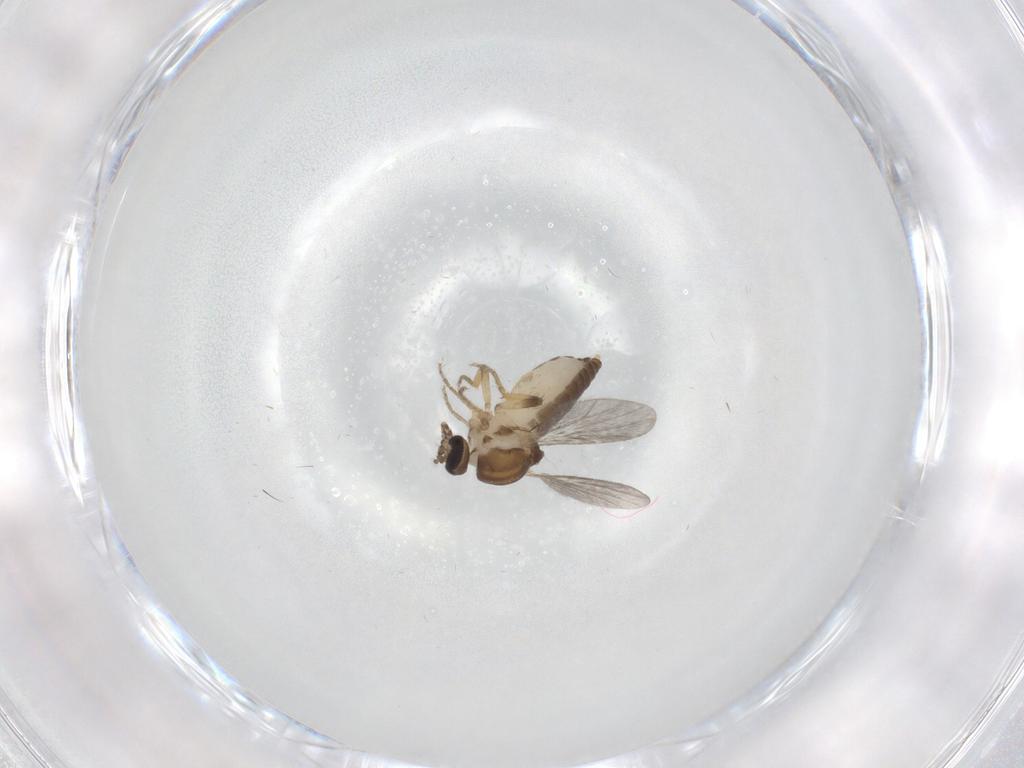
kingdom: Animalia
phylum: Arthropoda
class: Insecta
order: Diptera
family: Ceratopogonidae
